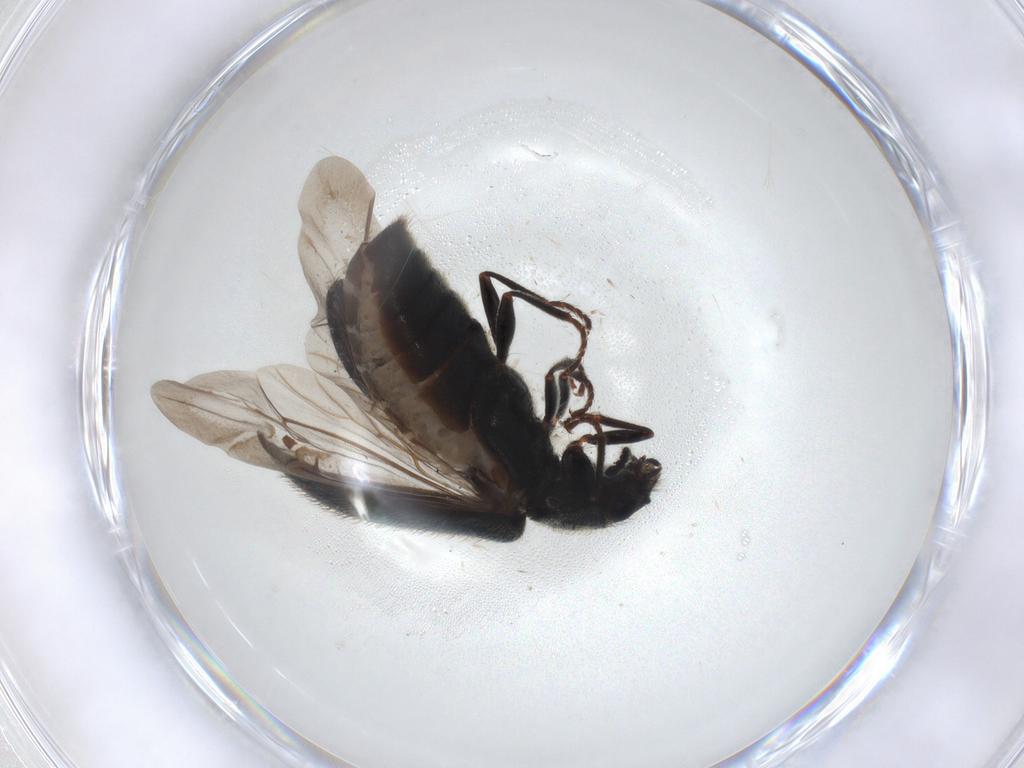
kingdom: Animalia
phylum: Arthropoda
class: Insecta
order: Coleoptera
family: Melyridae
